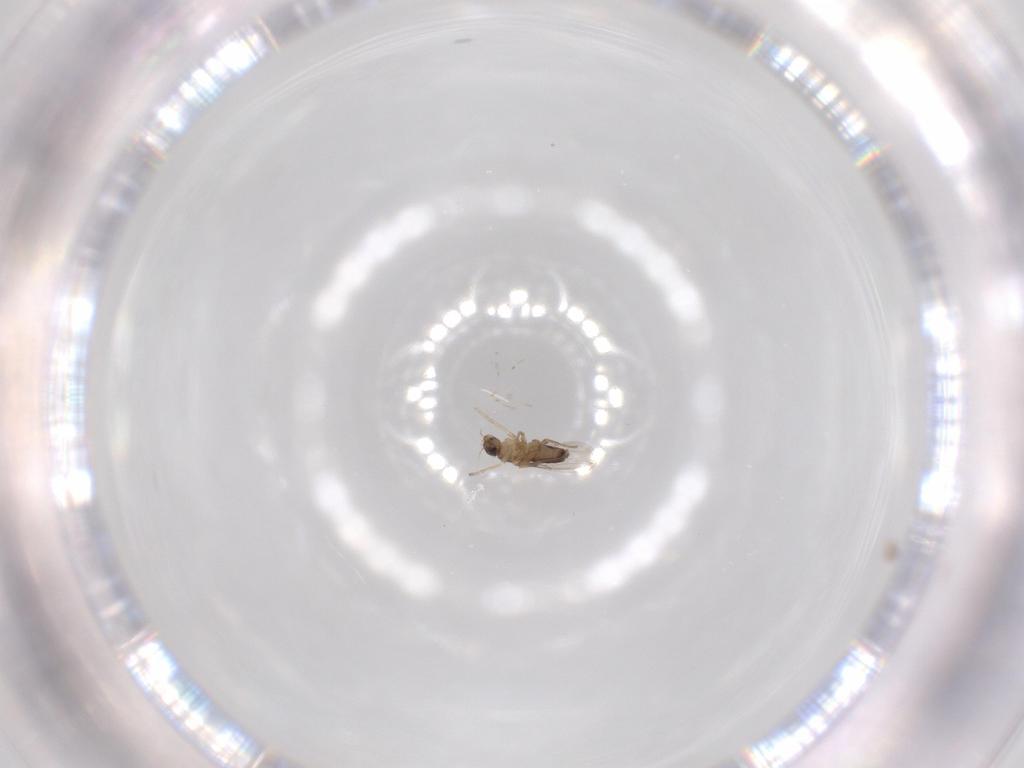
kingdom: Animalia
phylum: Arthropoda
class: Insecta
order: Diptera
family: Phoridae
